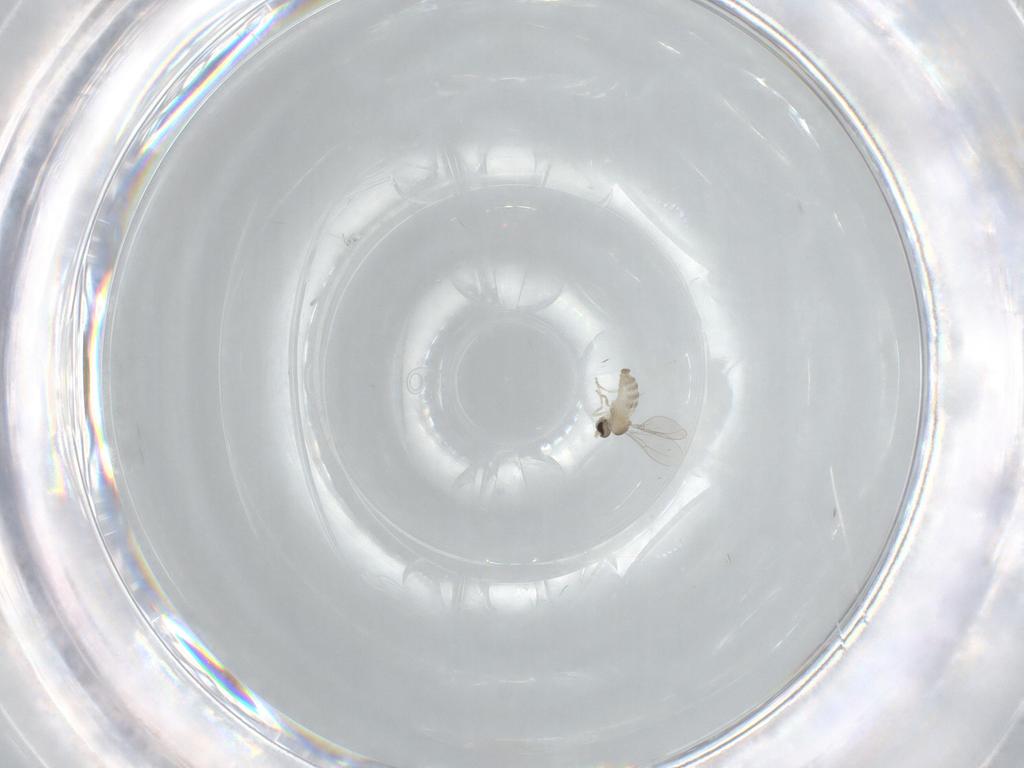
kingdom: Animalia
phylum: Arthropoda
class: Insecta
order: Diptera
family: Cecidomyiidae
